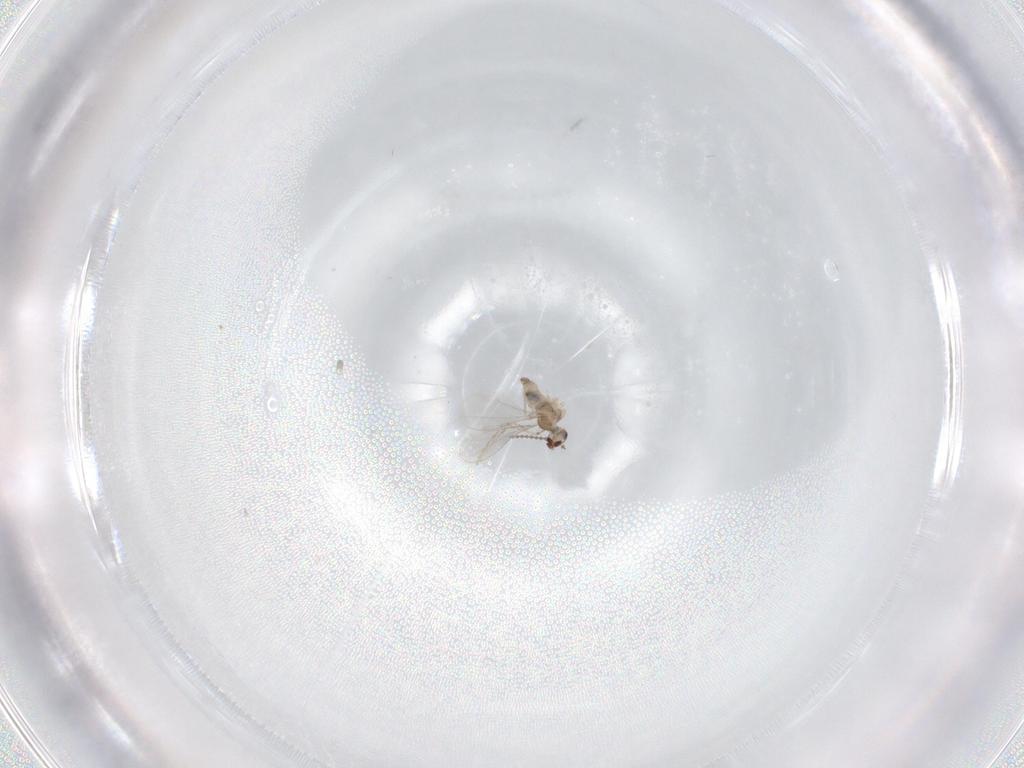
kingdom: Animalia
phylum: Arthropoda
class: Insecta
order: Diptera
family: Cecidomyiidae
